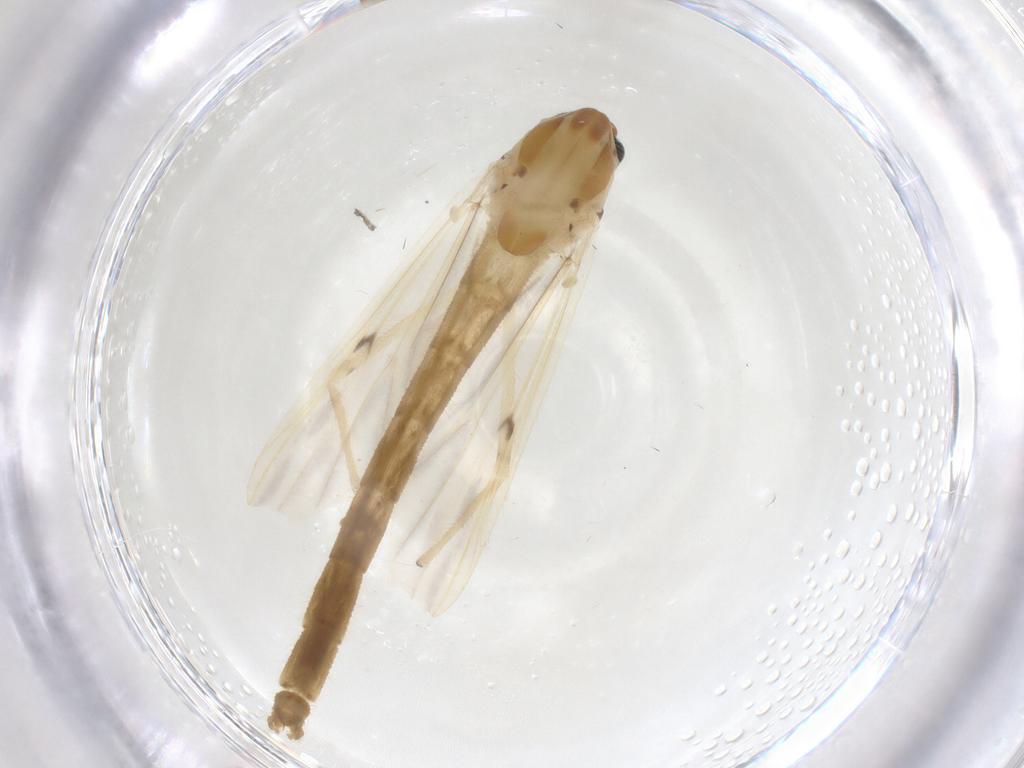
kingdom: Animalia
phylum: Arthropoda
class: Insecta
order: Diptera
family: Chironomidae
